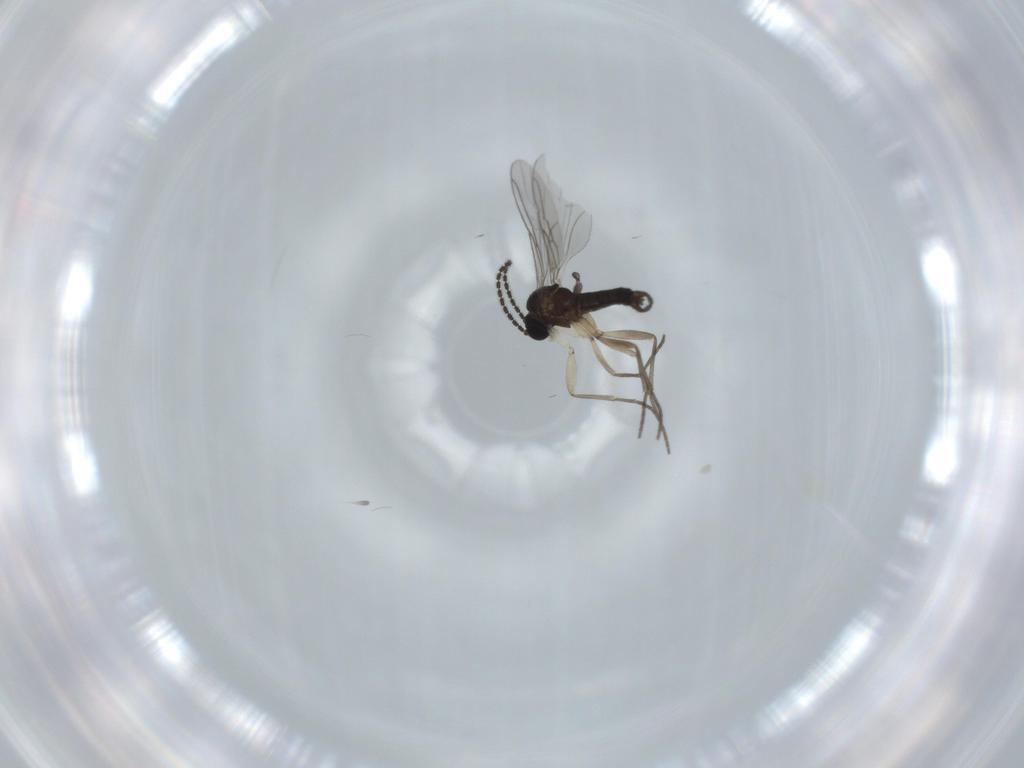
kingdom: Animalia
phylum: Arthropoda
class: Insecta
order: Diptera
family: Sciaridae
